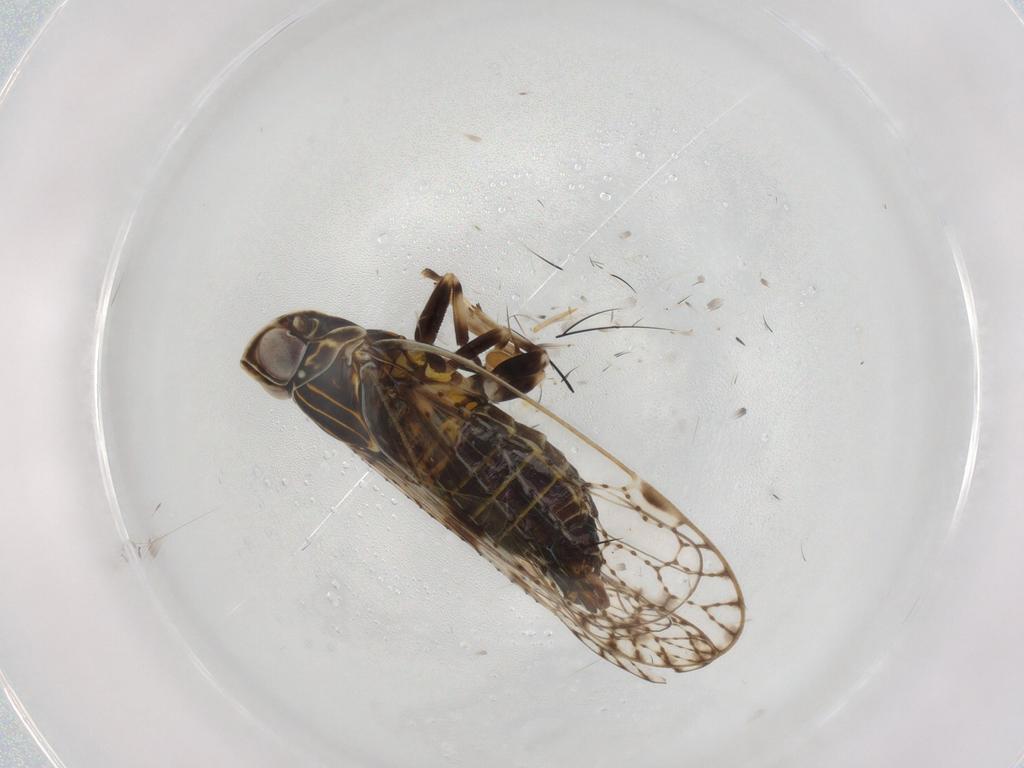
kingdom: Animalia
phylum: Arthropoda
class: Insecta
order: Hemiptera
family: Cixiidae
